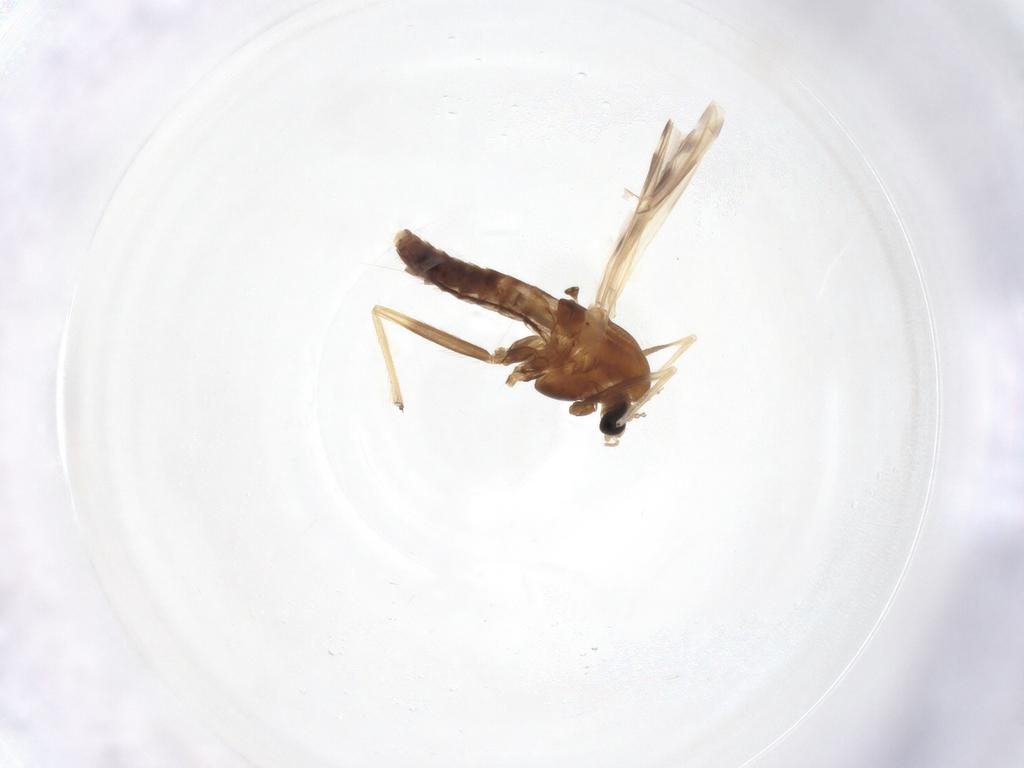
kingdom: Animalia
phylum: Arthropoda
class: Insecta
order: Diptera
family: Chironomidae
